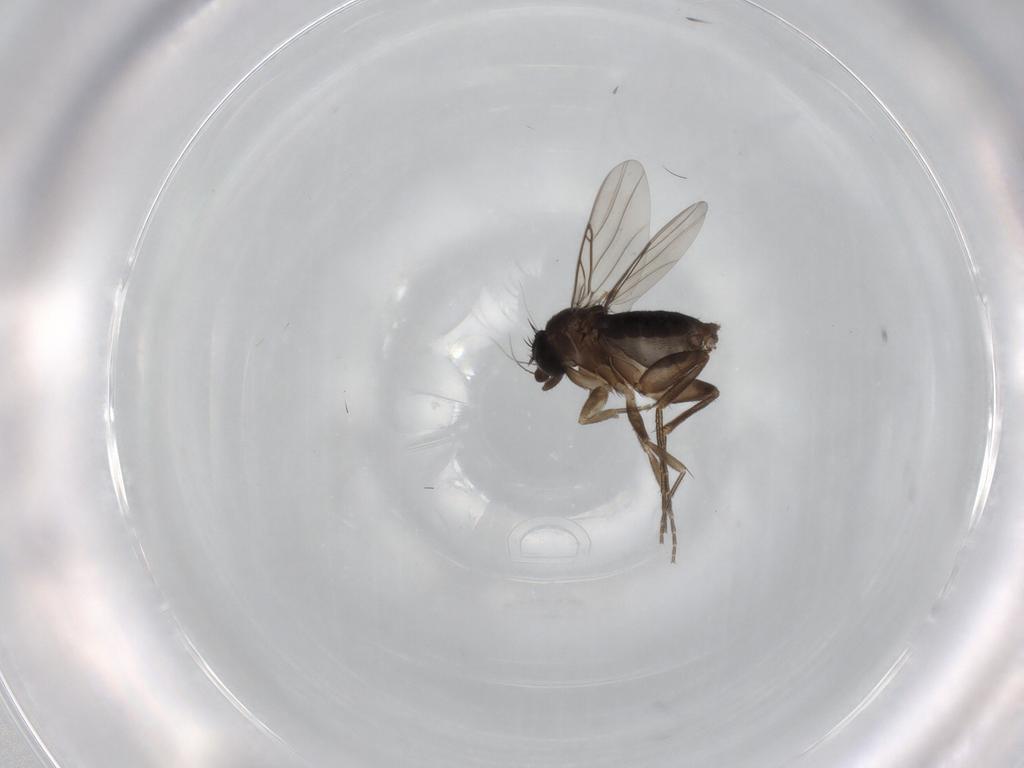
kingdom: Animalia
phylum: Arthropoda
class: Insecta
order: Diptera
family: Phoridae
